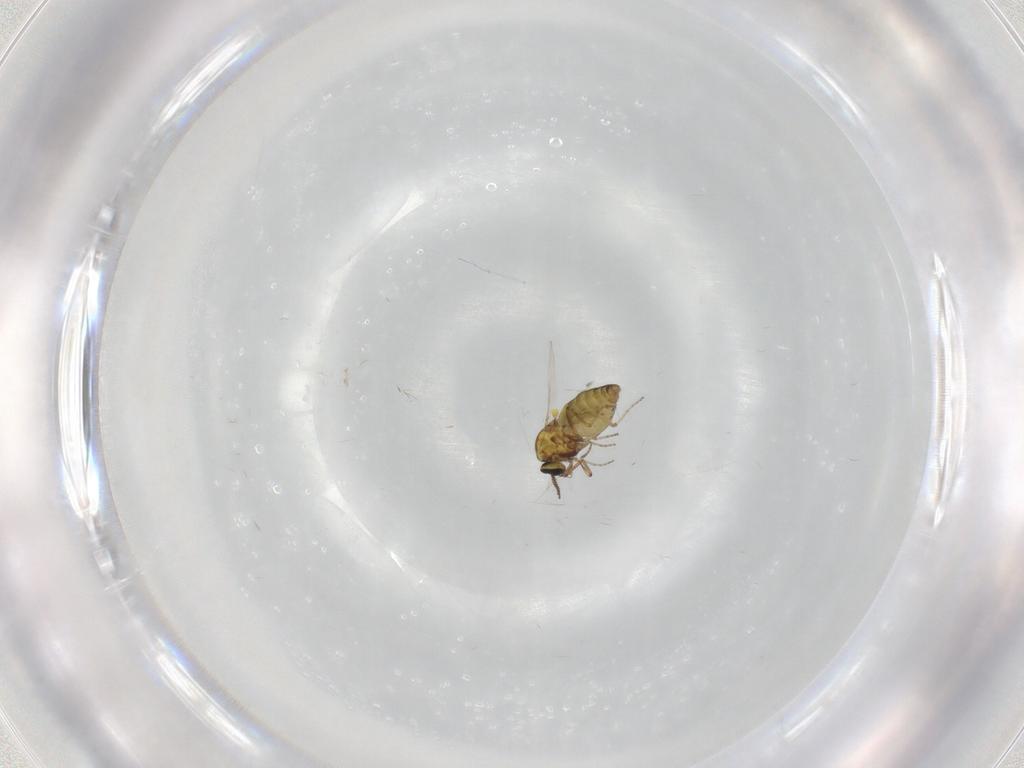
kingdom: Animalia
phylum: Arthropoda
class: Insecta
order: Diptera
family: Ceratopogonidae
